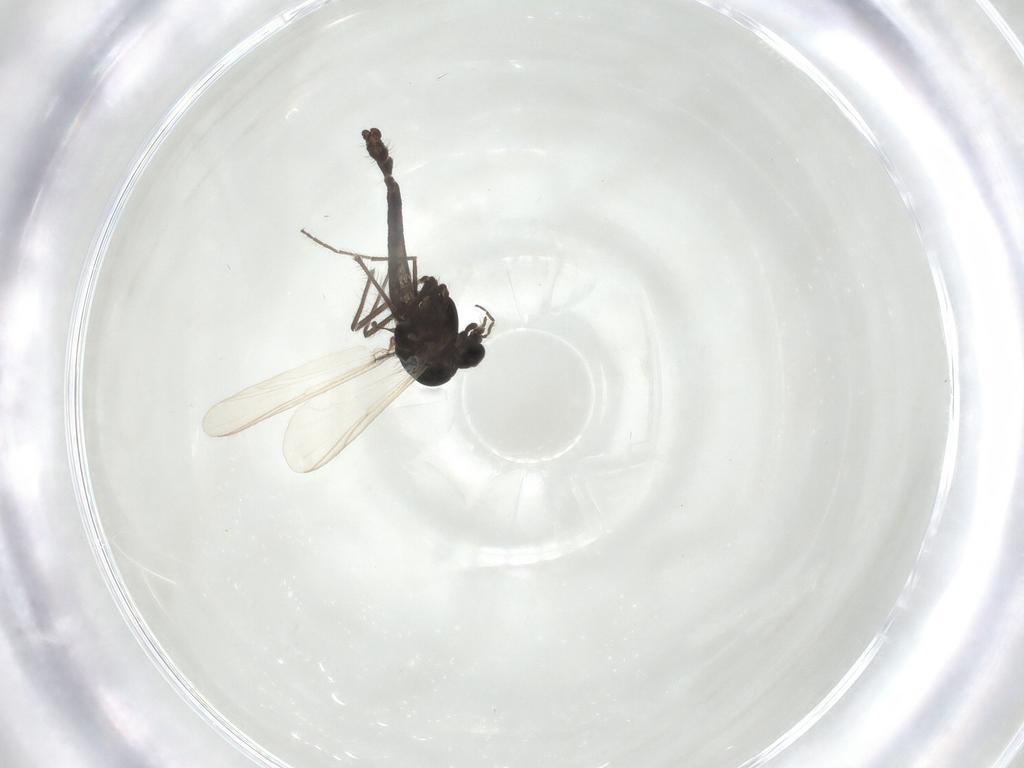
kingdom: Animalia
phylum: Arthropoda
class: Insecta
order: Diptera
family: Chironomidae
